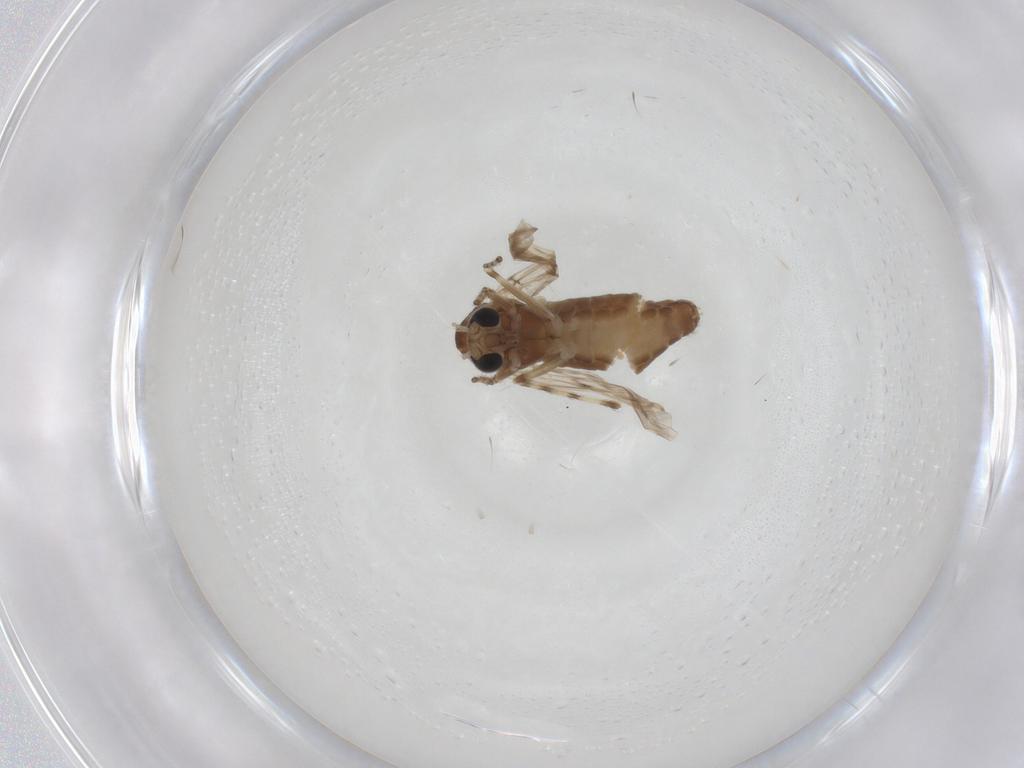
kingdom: Animalia
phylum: Arthropoda
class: Insecta
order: Diptera
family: Chironomidae
